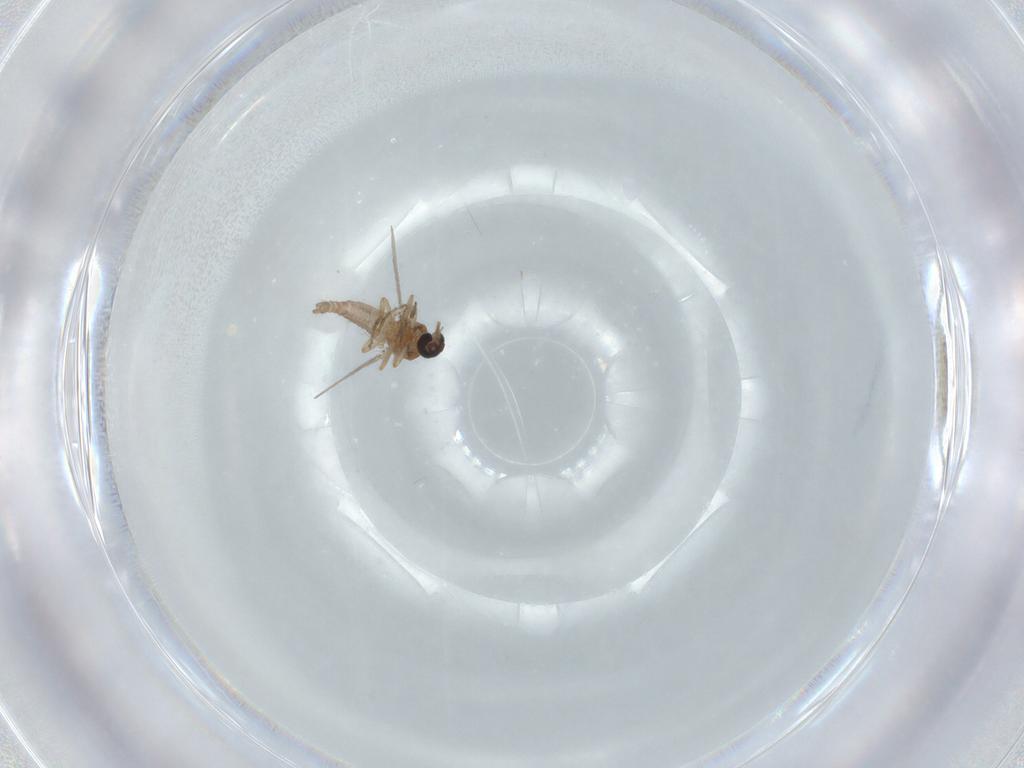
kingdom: Animalia
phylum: Arthropoda
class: Insecta
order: Diptera
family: Cecidomyiidae
